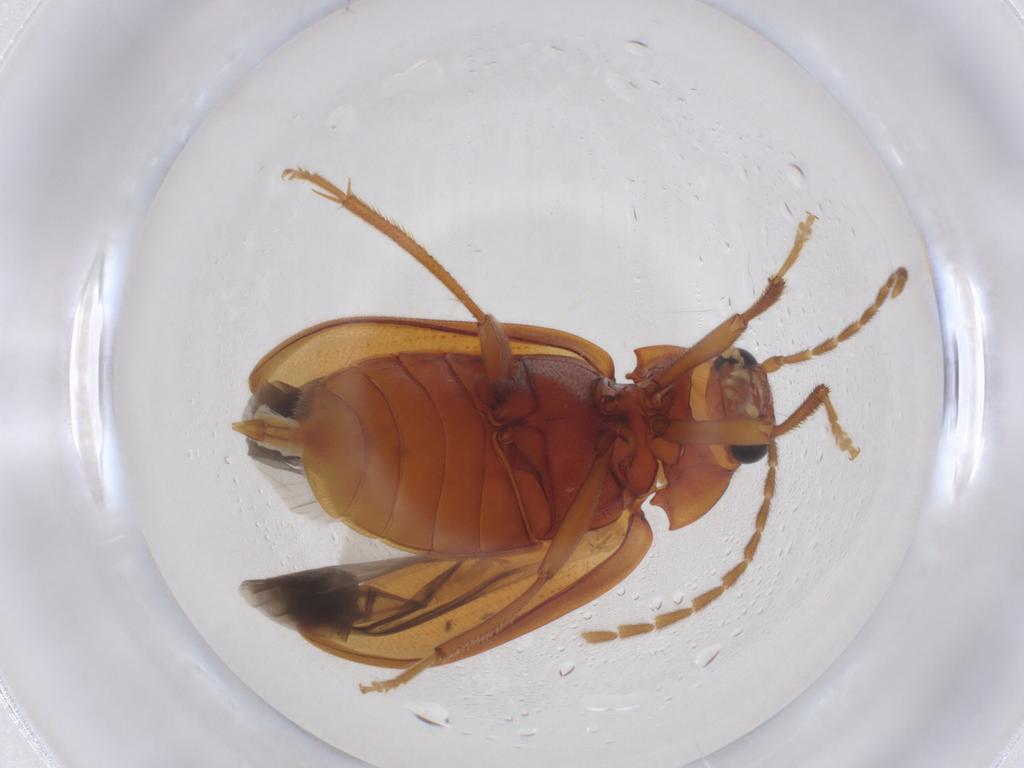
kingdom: Animalia
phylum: Arthropoda
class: Insecta
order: Coleoptera
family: Ptilodactylidae
